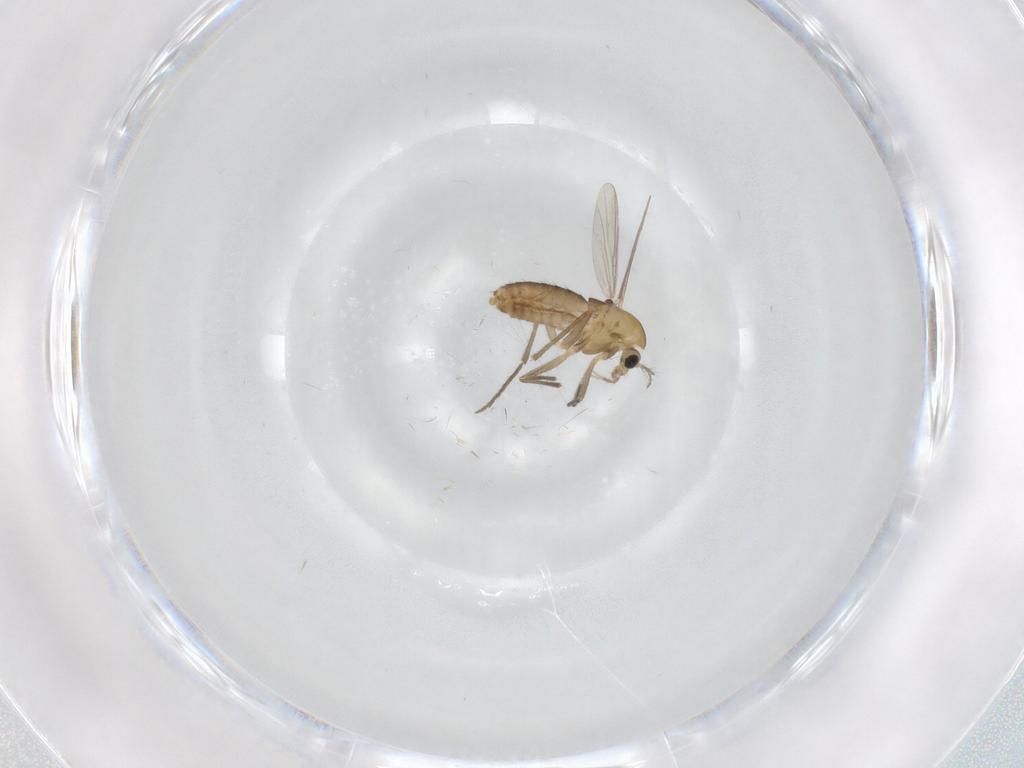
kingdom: Animalia
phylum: Arthropoda
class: Insecta
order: Diptera
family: Chironomidae
